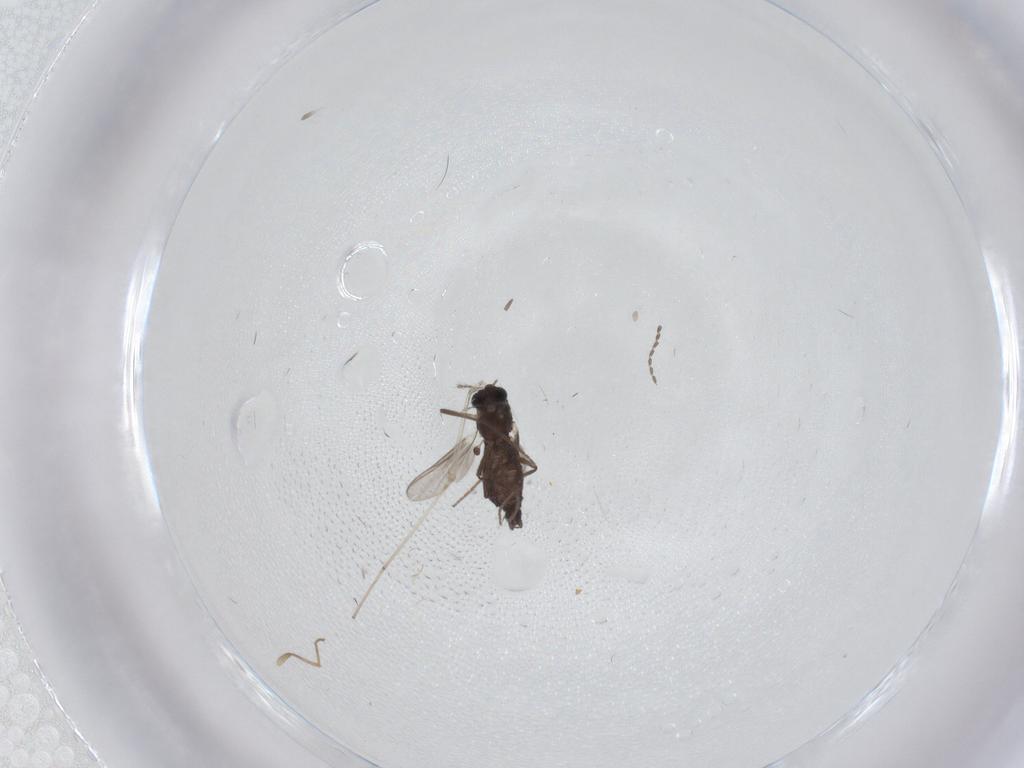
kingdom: Animalia
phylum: Arthropoda
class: Insecta
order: Diptera
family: Chironomidae
